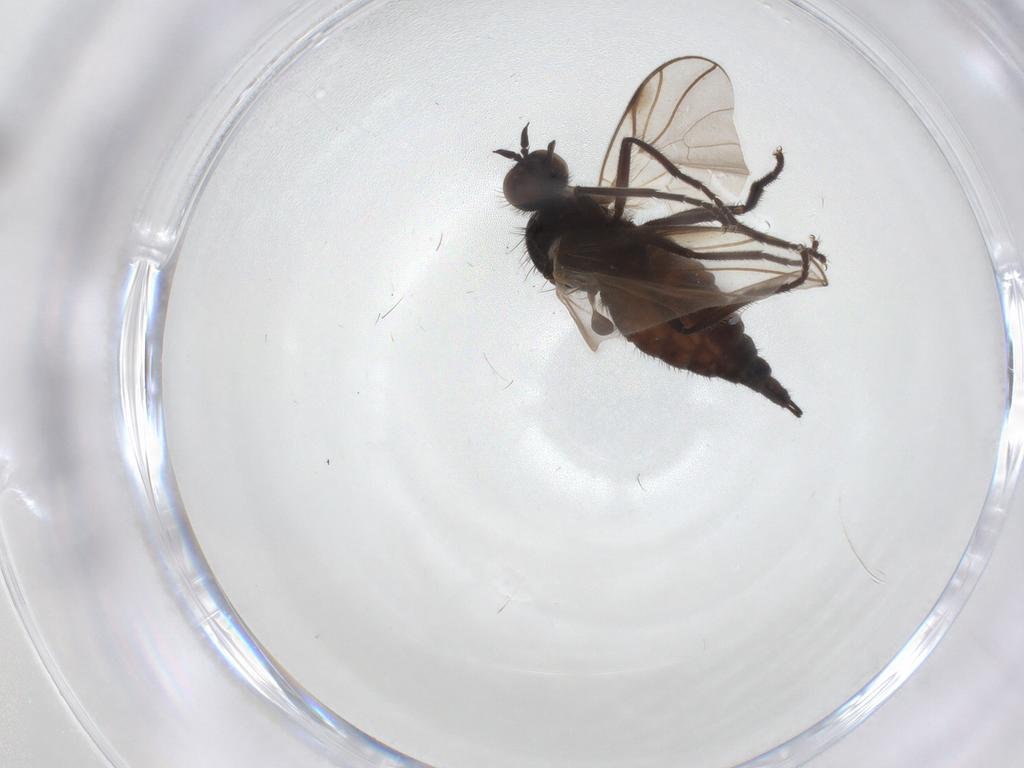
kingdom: Animalia
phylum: Arthropoda
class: Insecta
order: Diptera
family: Empididae
